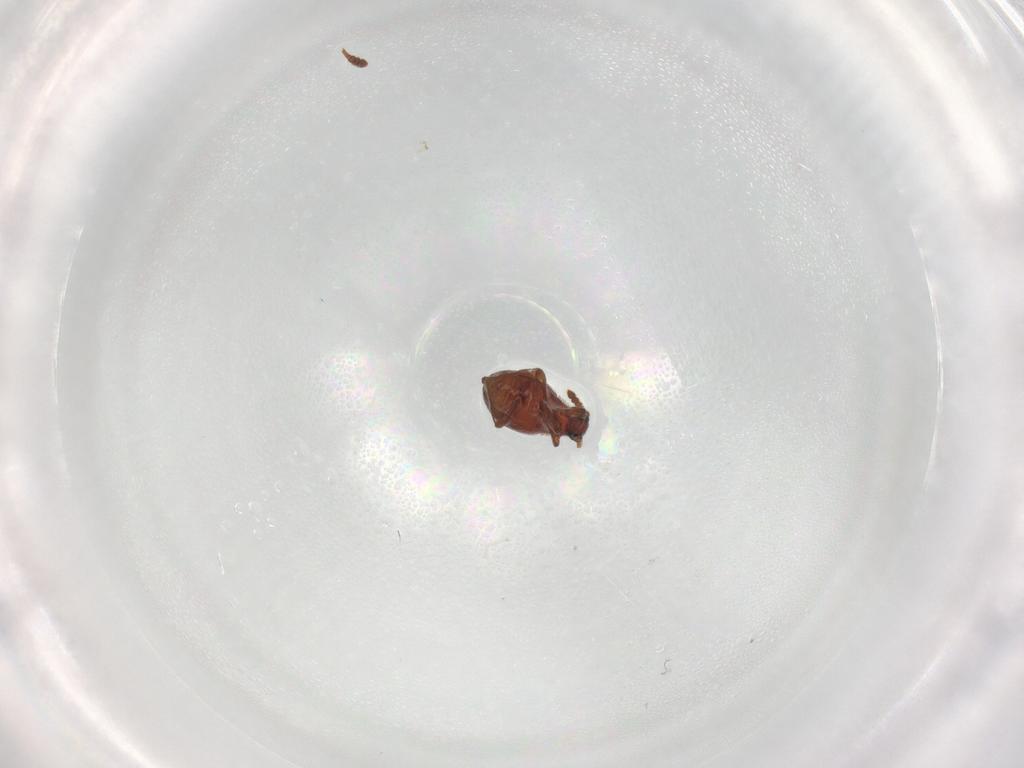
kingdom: Animalia
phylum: Arthropoda
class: Insecta
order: Coleoptera
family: Staphylinidae
